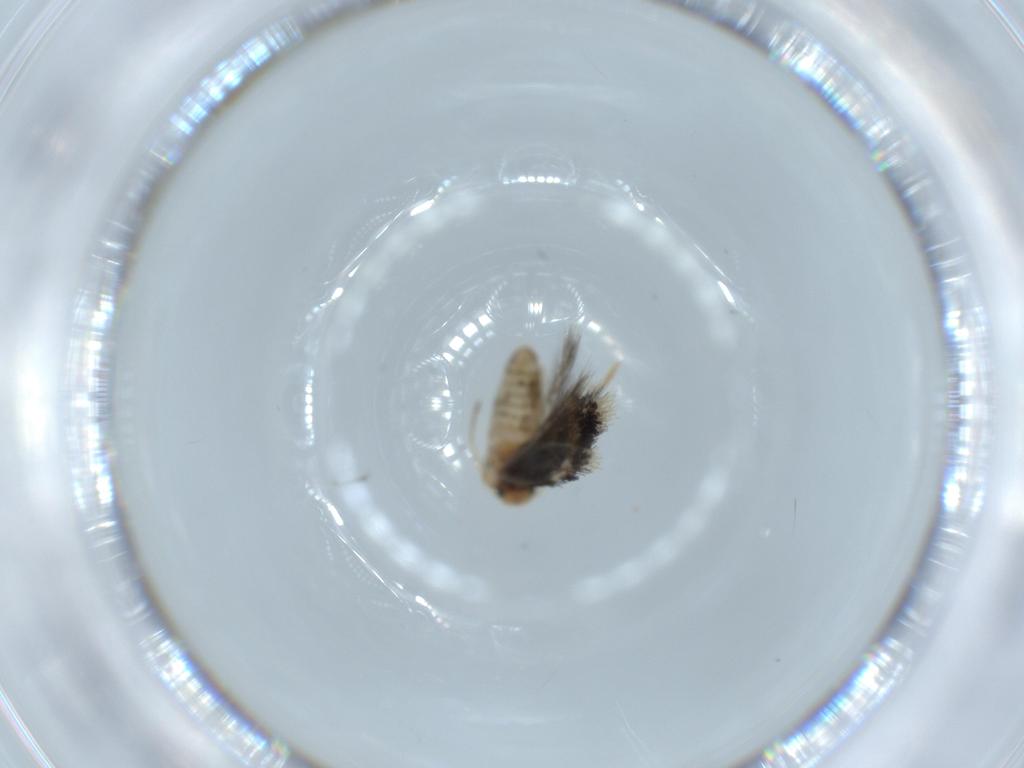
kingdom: Animalia
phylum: Arthropoda
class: Insecta
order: Lepidoptera
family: Nepticulidae
